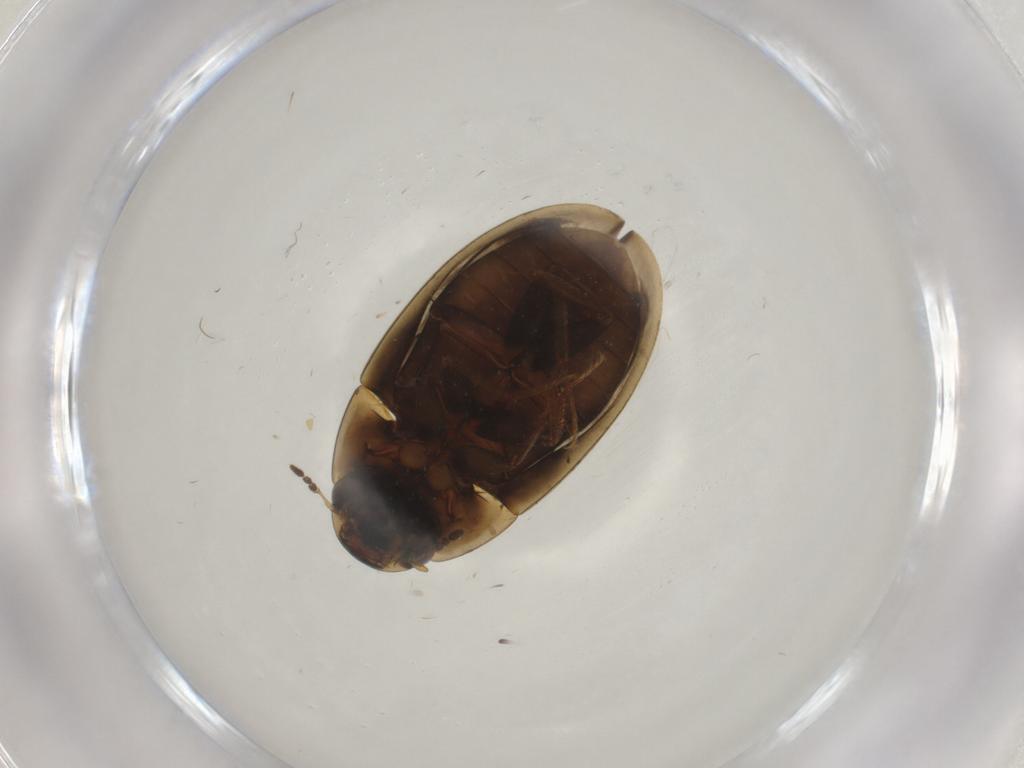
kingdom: Animalia
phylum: Arthropoda
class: Insecta
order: Coleoptera
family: Hydrophilidae
